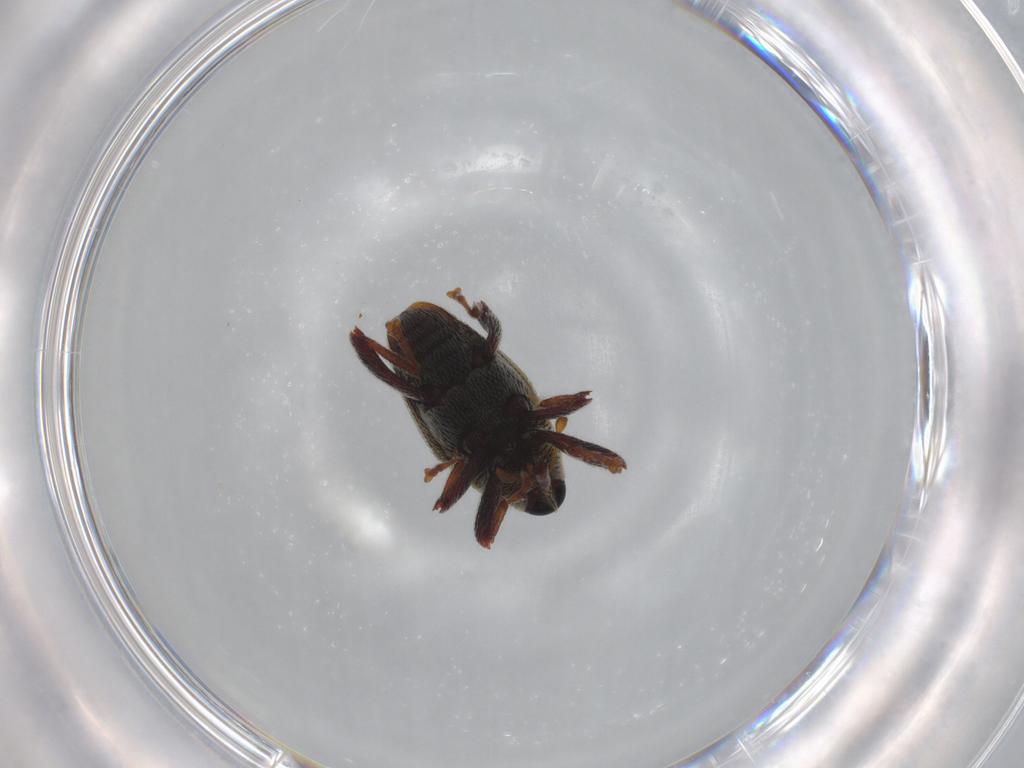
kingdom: Animalia
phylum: Arthropoda
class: Insecta
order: Coleoptera
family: Curculionidae
